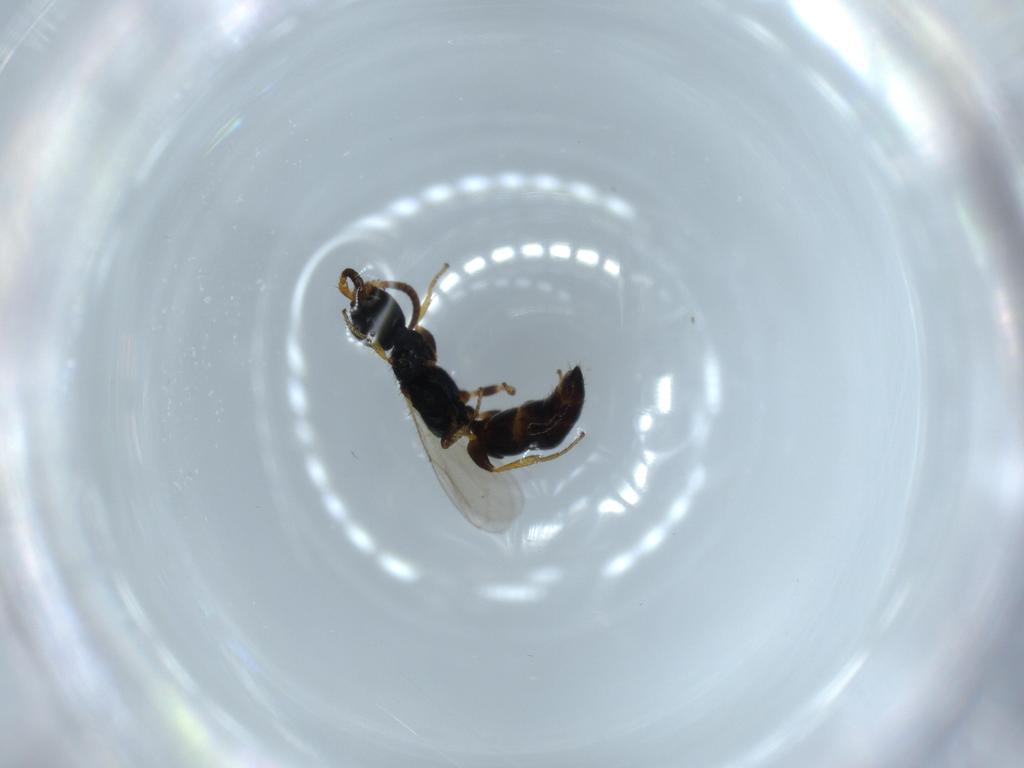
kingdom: Animalia
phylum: Arthropoda
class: Insecta
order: Hymenoptera
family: Bethylidae
